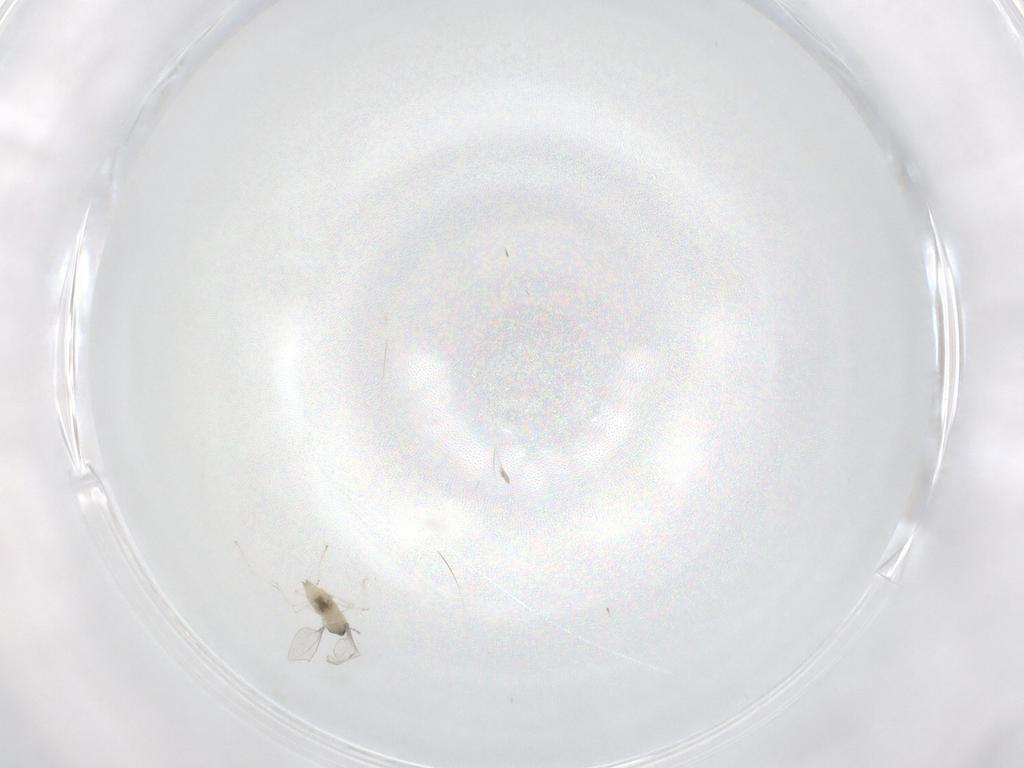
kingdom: Animalia
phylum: Arthropoda
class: Insecta
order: Diptera
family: Cecidomyiidae
